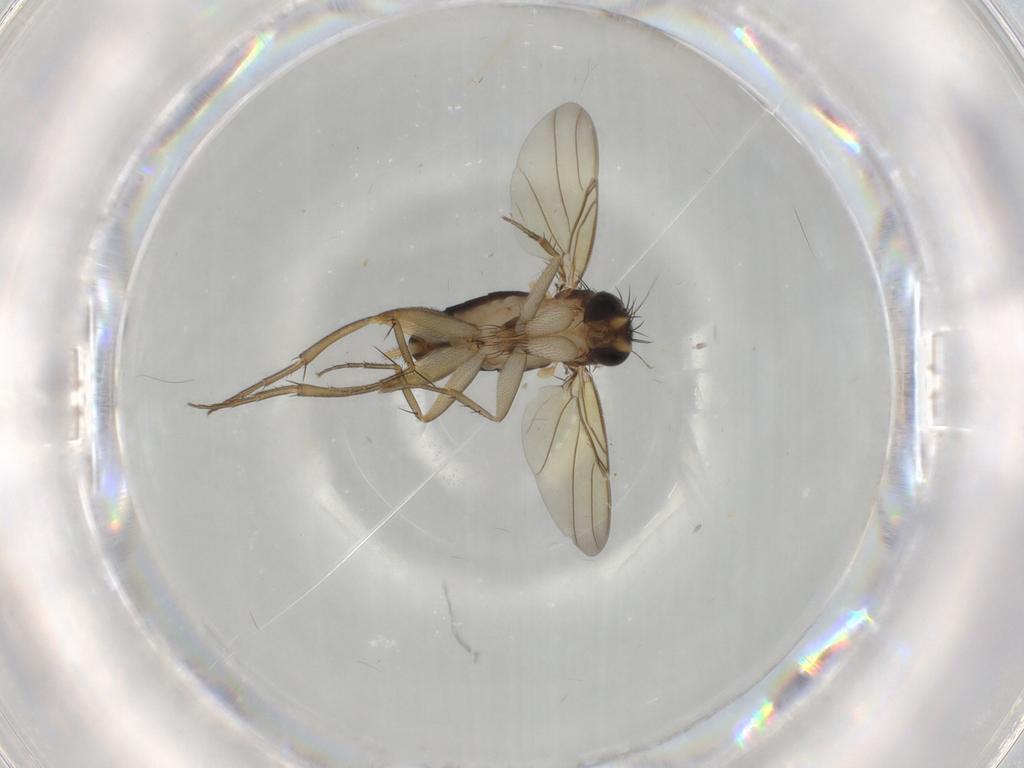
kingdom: Animalia
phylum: Arthropoda
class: Insecta
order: Diptera
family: Phoridae
